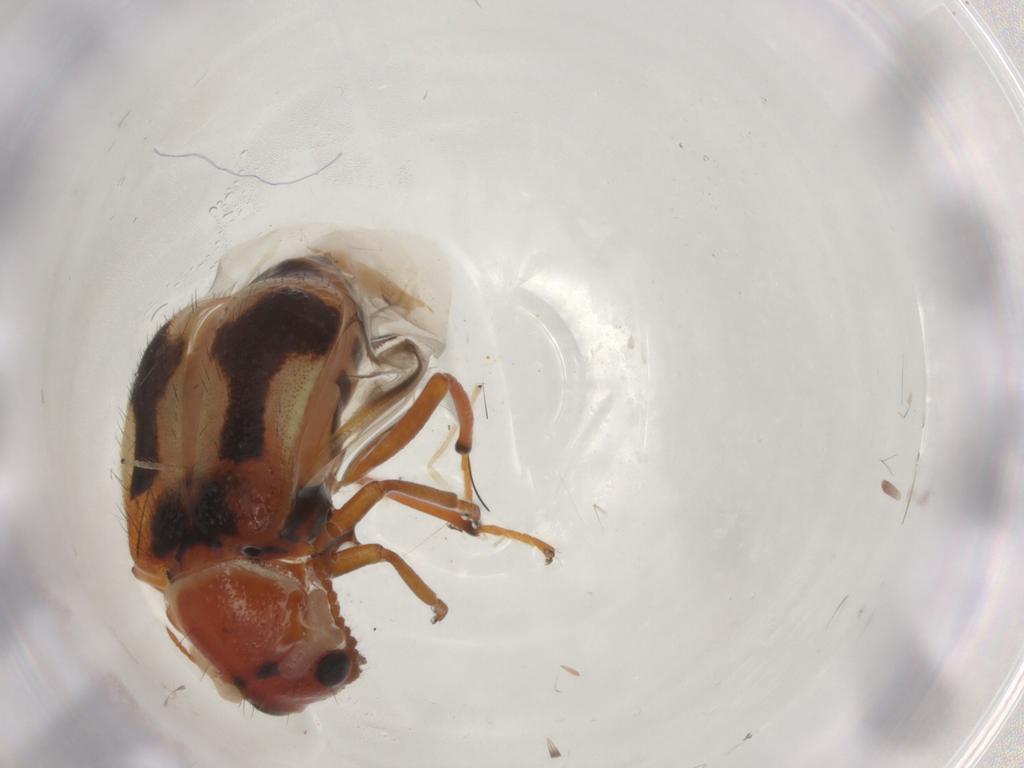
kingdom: Animalia
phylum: Arthropoda
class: Insecta
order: Coleoptera
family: Melyridae
